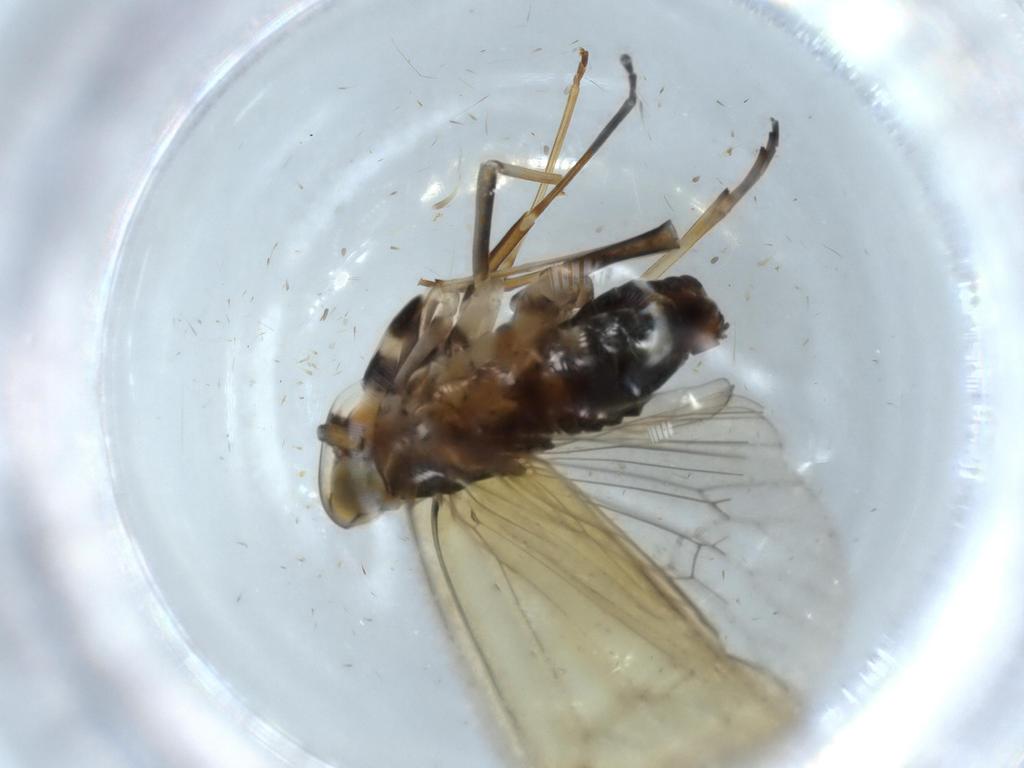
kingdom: Animalia
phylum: Arthropoda
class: Insecta
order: Hemiptera
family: Kinnaridae
